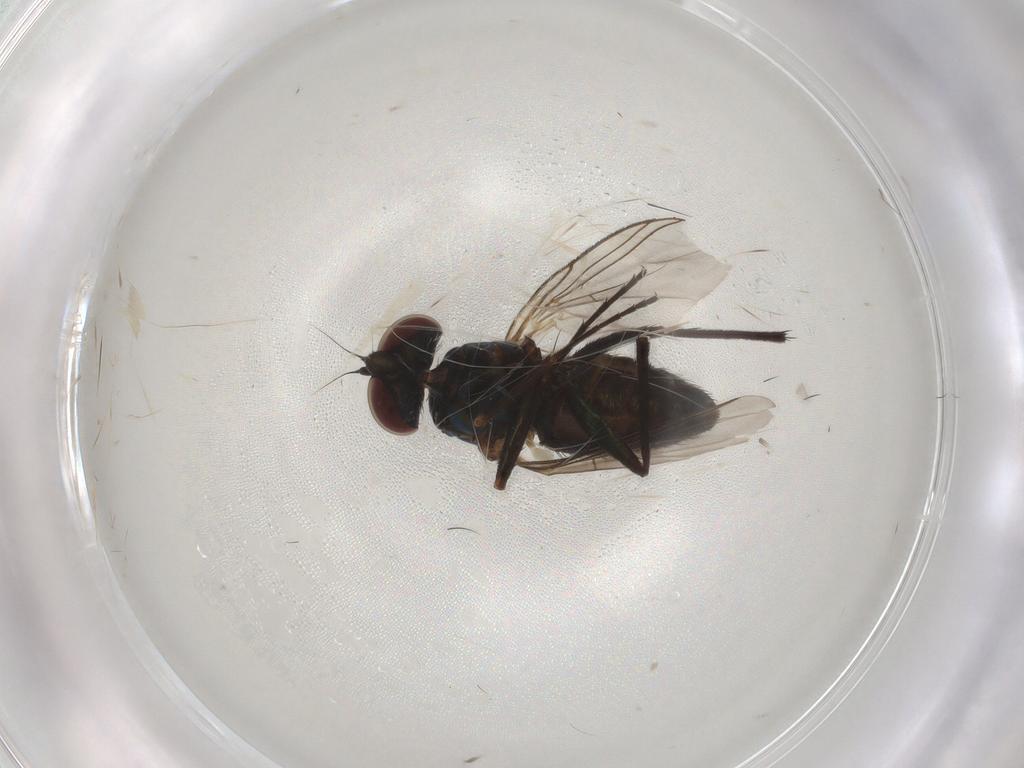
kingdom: Animalia
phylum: Arthropoda
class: Insecta
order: Diptera
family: Dolichopodidae
